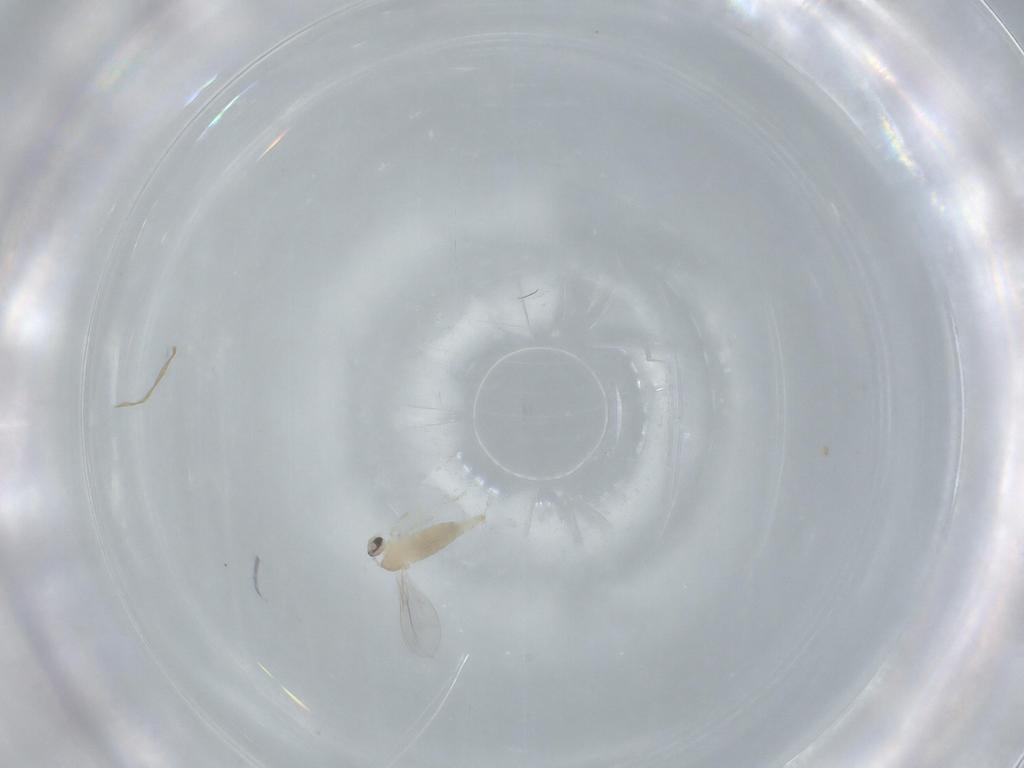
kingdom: Animalia
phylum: Arthropoda
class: Insecta
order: Diptera
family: Cecidomyiidae
